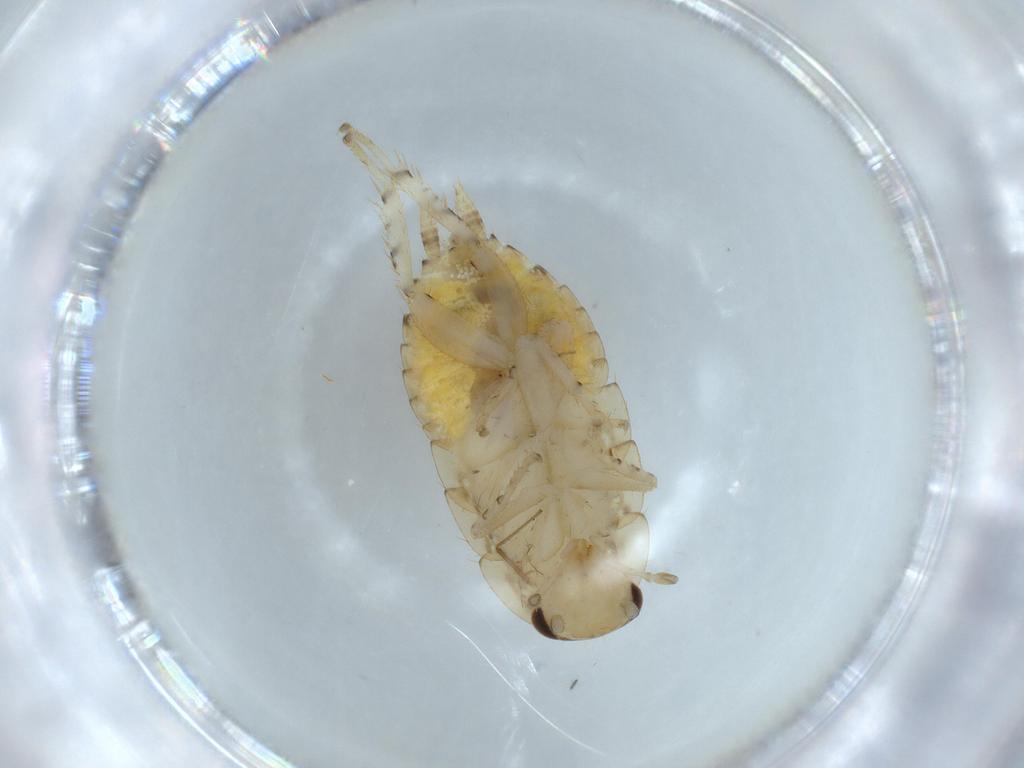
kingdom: Animalia
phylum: Arthropoda
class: Insecta
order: Blattodea
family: Ectobiidae
